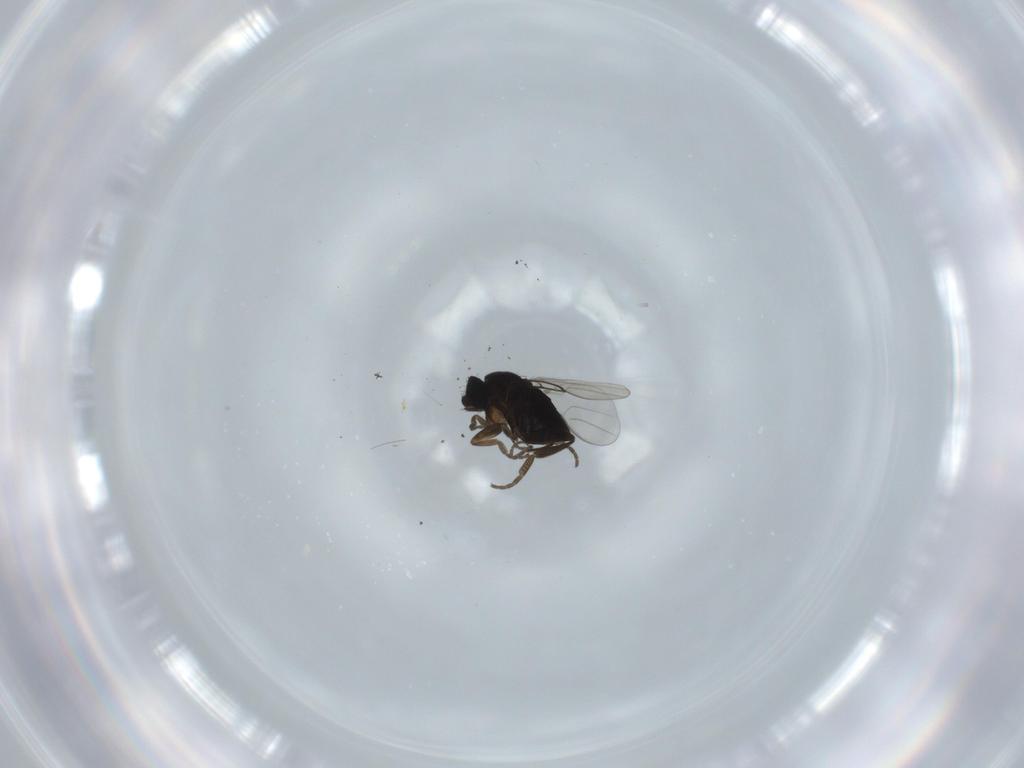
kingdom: Animalia
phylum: Arthropoda
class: Insecta
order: Diptera
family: Phoridae
